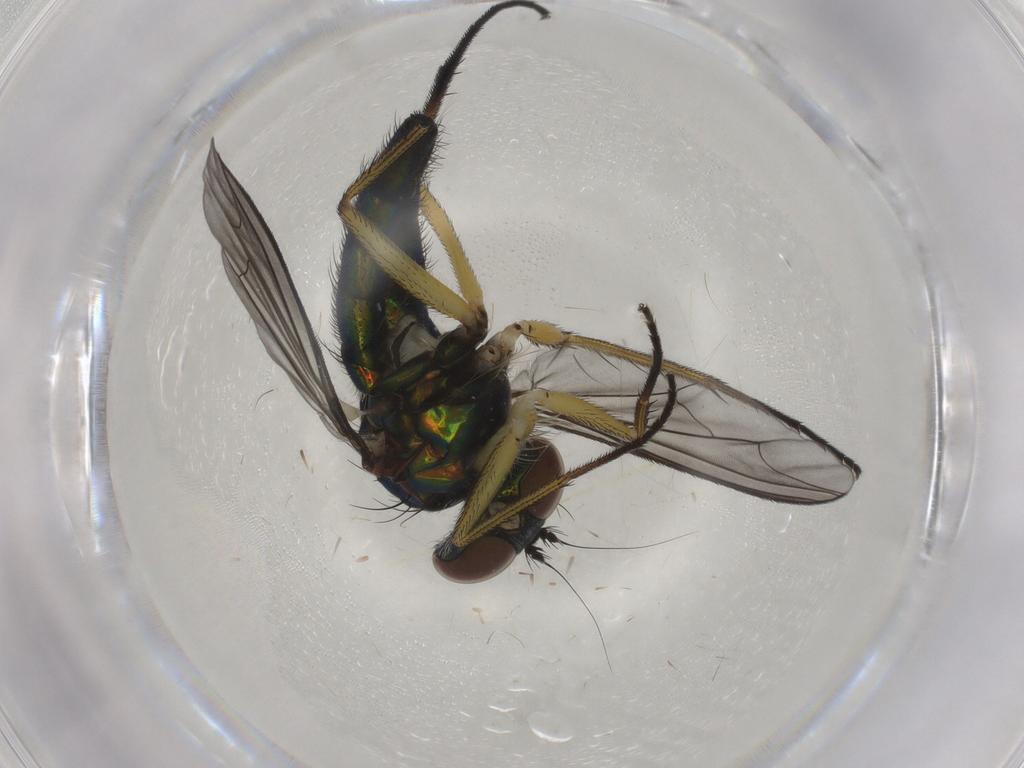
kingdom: Animalia
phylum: Arthropoda
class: Insecta
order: Diptera
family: Dolichopodidae
